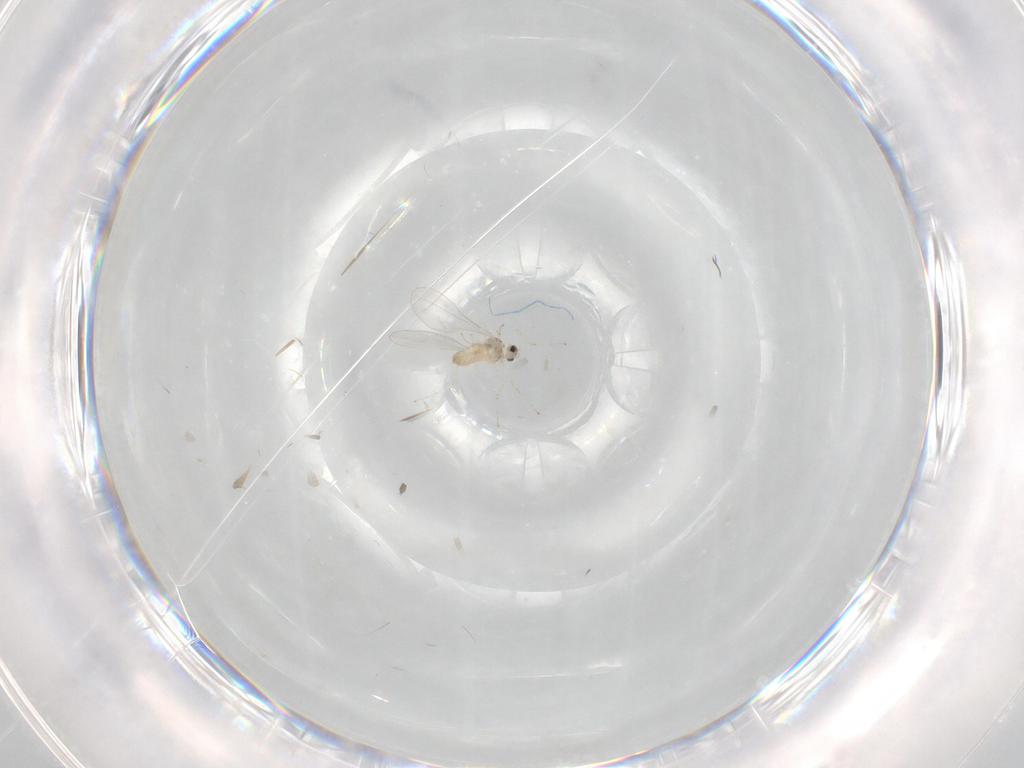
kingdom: Animalia
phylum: Arthropoda
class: Insecta
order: Diptera
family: Cecidomyiidae
